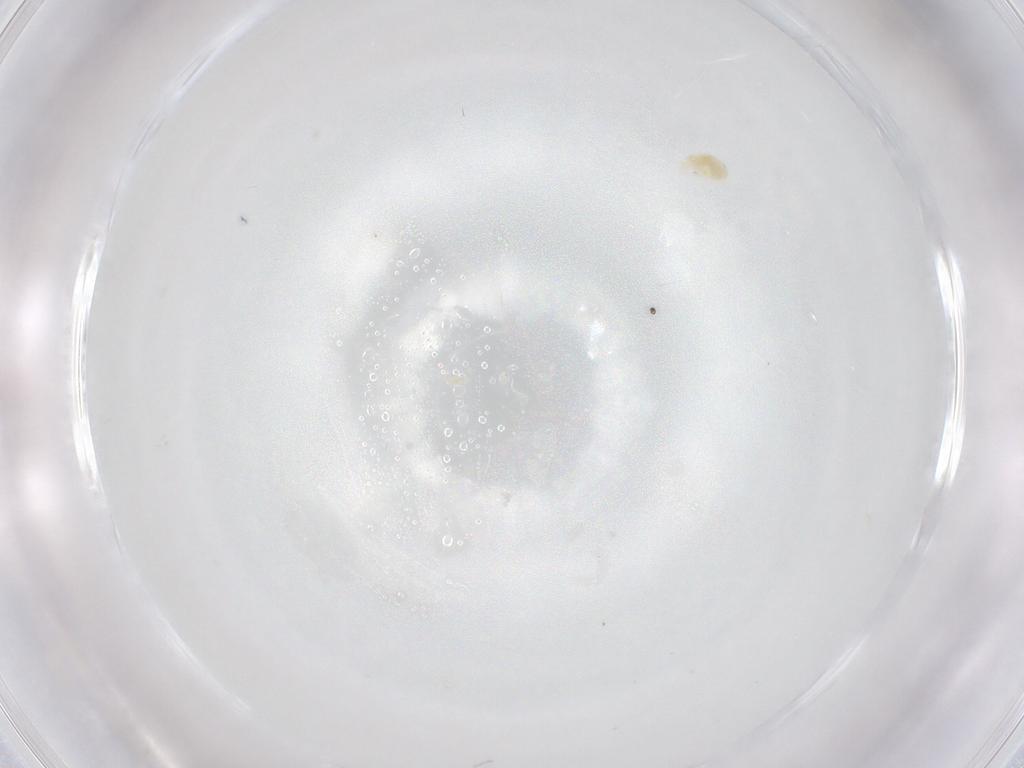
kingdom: Animalia
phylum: Arthropoda
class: Arachnida
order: Trombidiformes
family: Eupodidae
